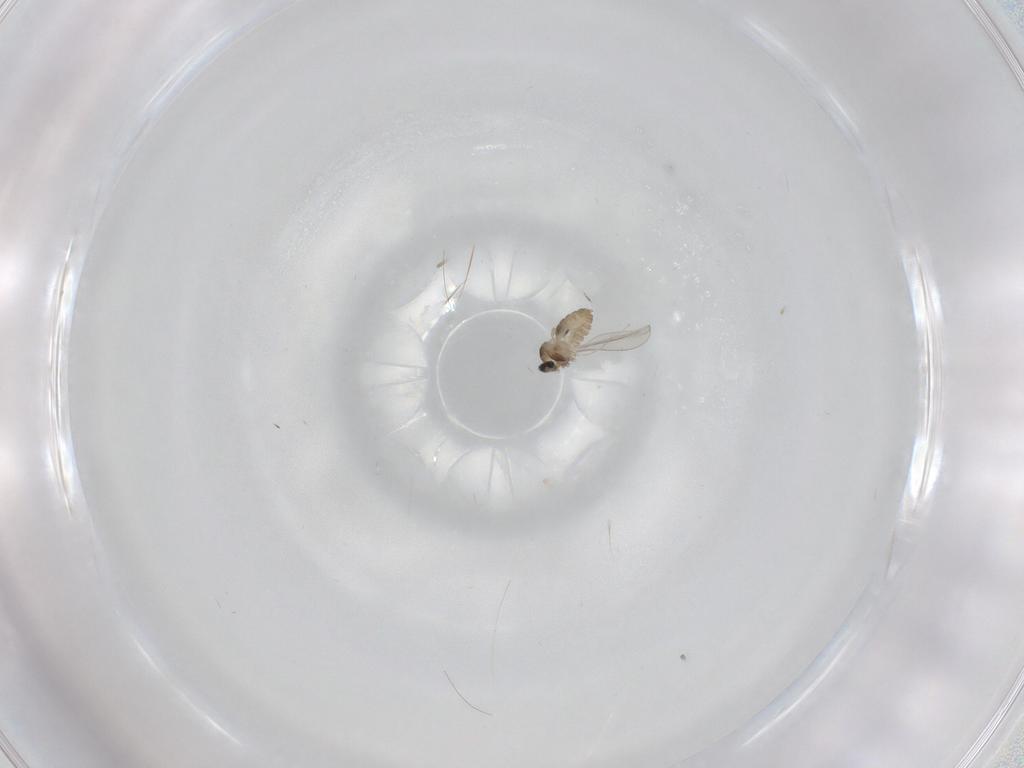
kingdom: Animalia
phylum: Arthropoda
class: Insecta
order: Diptera
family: Cecidomyiidae
